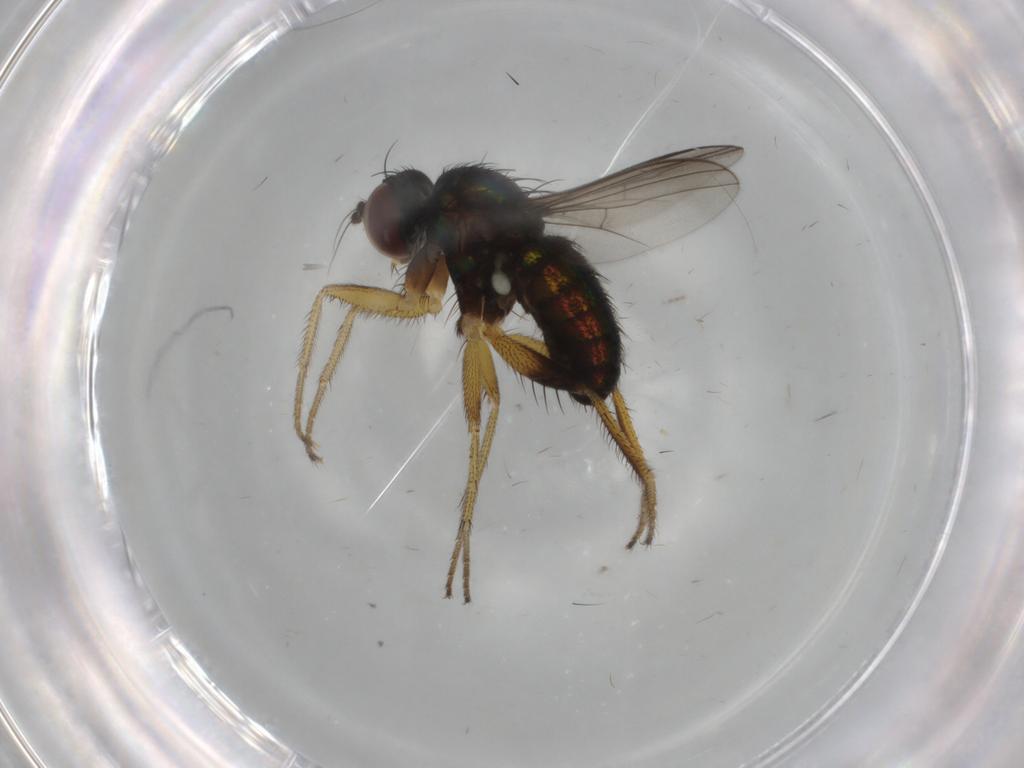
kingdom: Animalia
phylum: Arthropoda
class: Insecta
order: Diptera
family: Dolichopodidae
